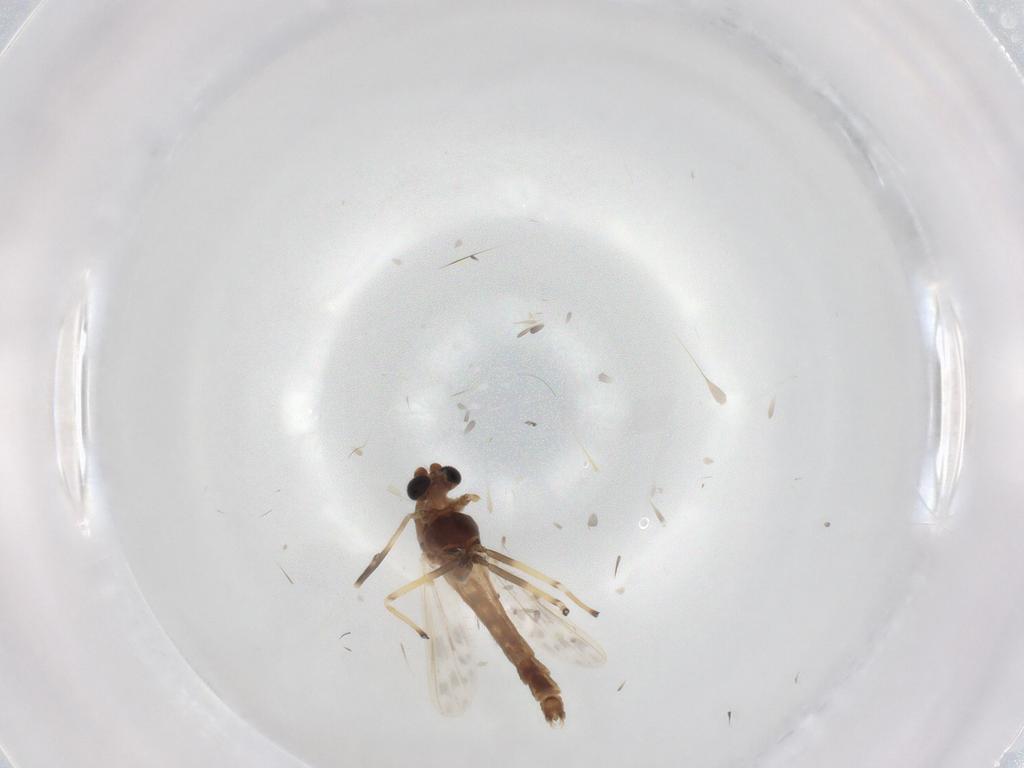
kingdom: Animalia
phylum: Arthropoda
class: Insecta
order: Diptera
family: Chironomidae
